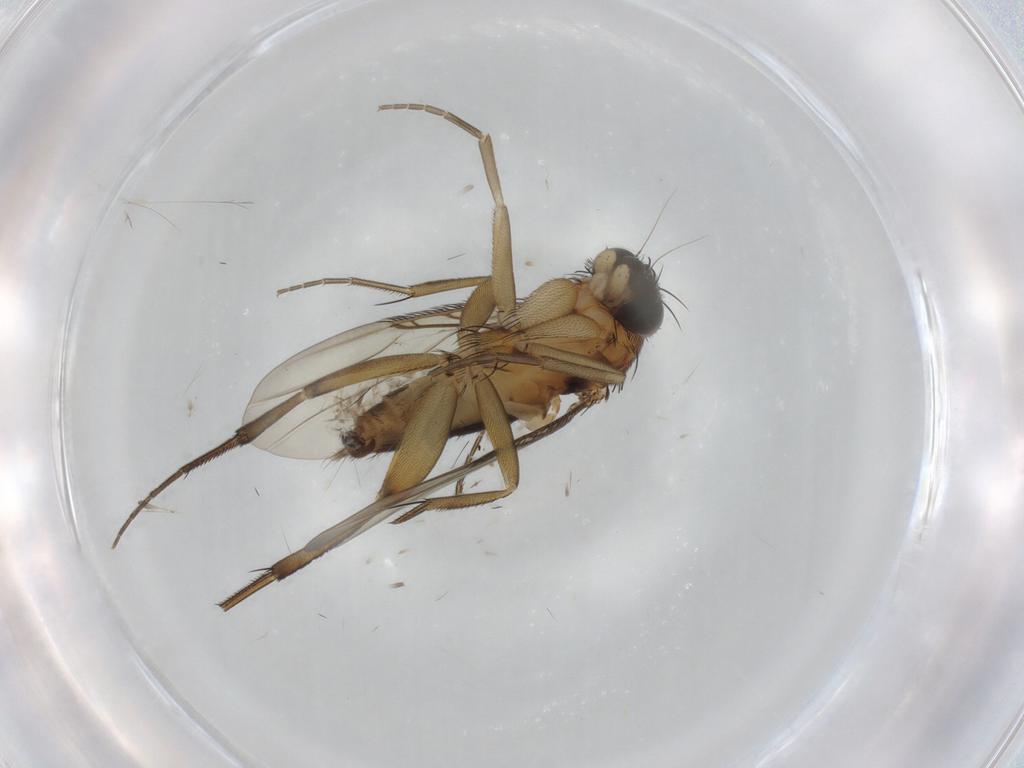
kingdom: Animalia
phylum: Arthropoda
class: Insecta
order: Diptera
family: Phoridae
